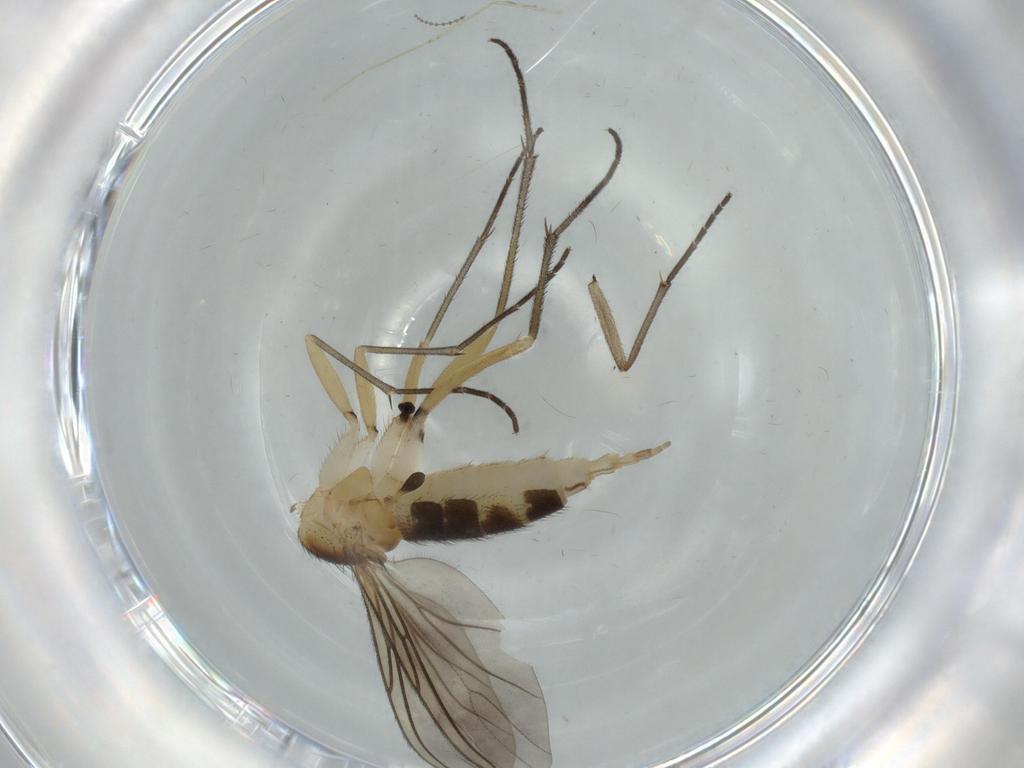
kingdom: Animalia
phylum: Arthropoda
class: Insecta
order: Diptera
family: Sciaridae
